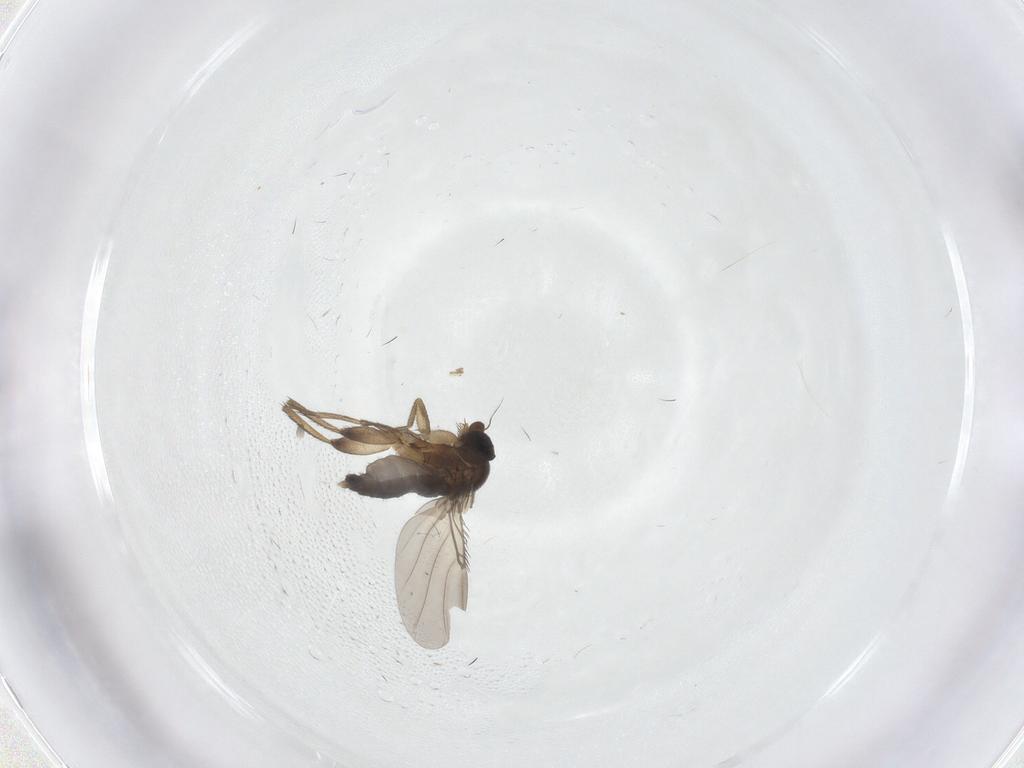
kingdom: Animalia
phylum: Arthropoda
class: Insecta
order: Diptera
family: Phoridae
